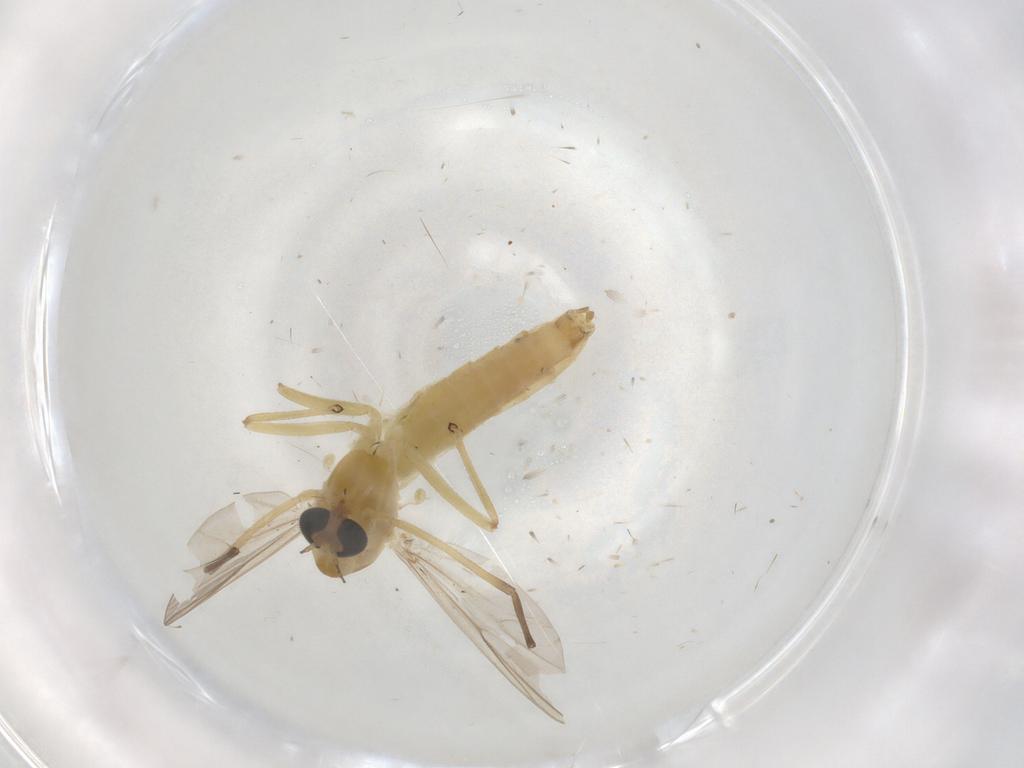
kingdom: Animalia
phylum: Arthropoda
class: Insecta
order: Diptera
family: Chironomidae
